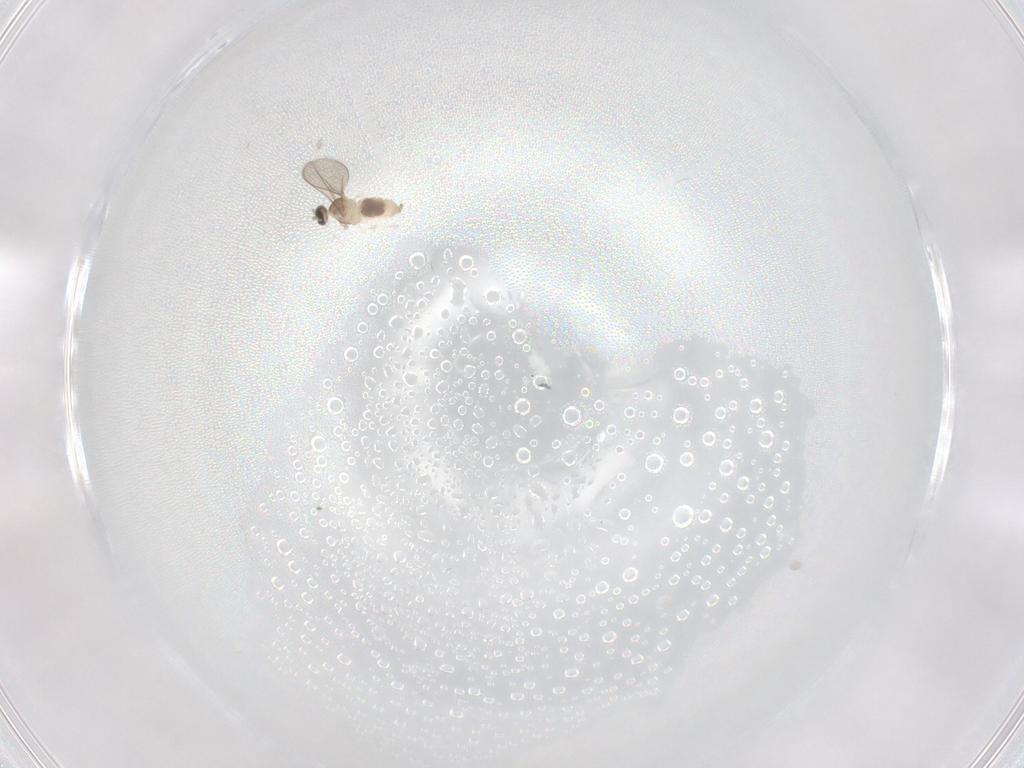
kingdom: Animalia
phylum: Arthropoda
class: Insecta
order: Diptera
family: Cecidomyiidae
